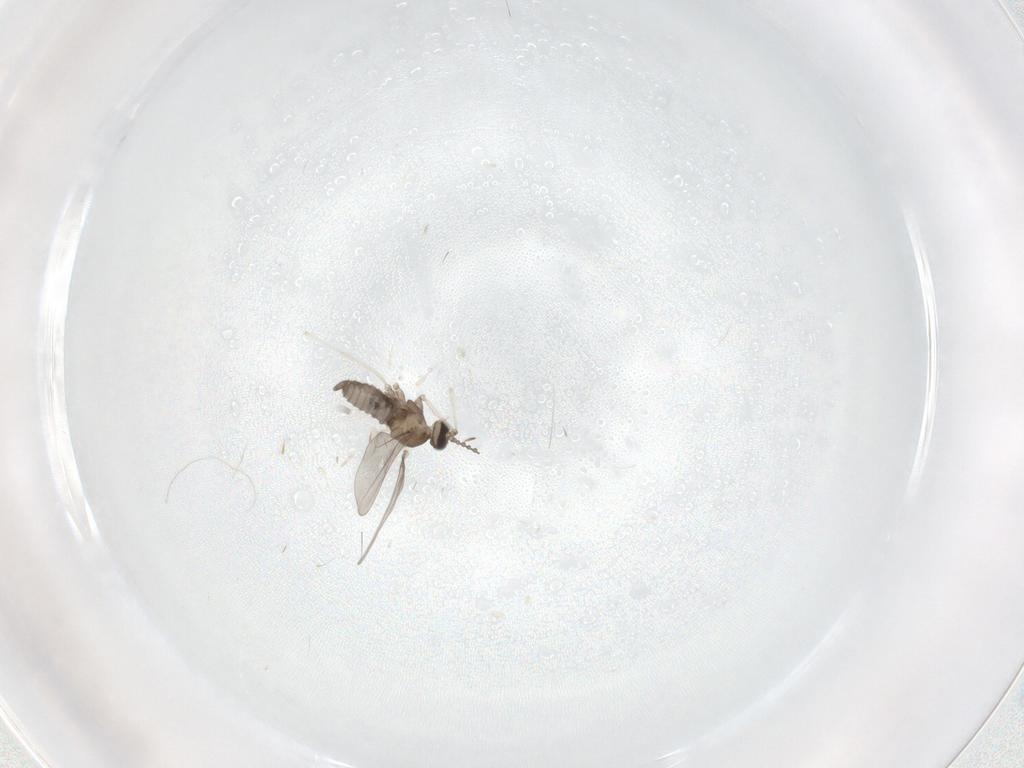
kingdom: Animalia
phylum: Arthropoda
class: Insecta
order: Diptera
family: Cecidomyiidae
